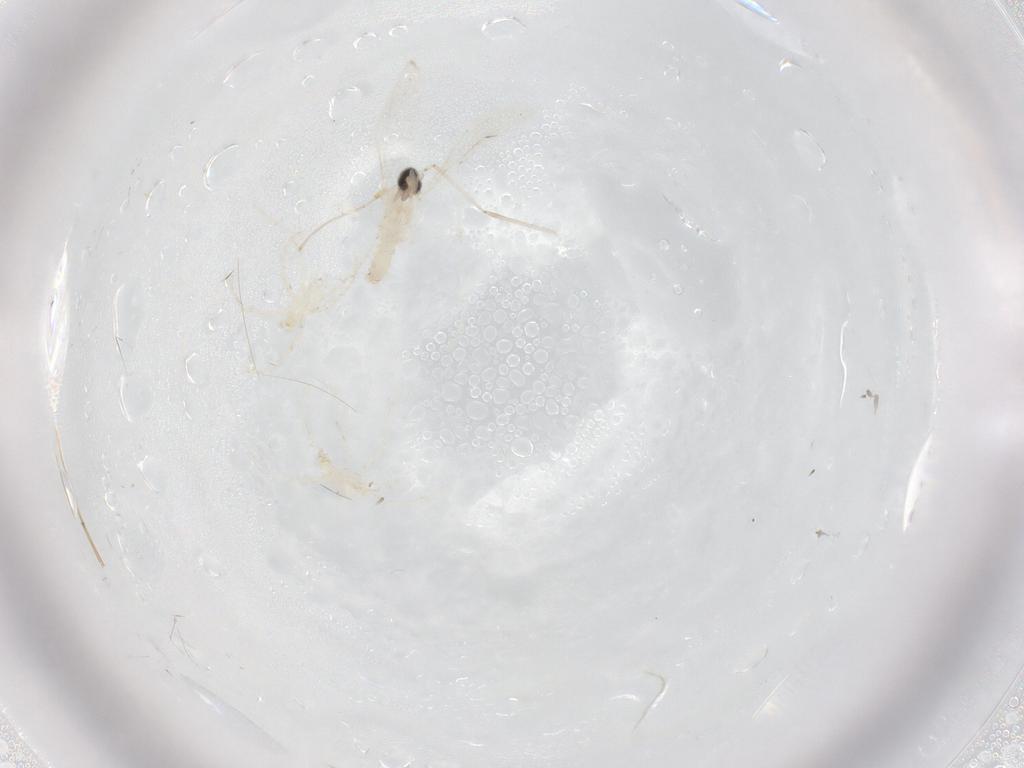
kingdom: Animalia
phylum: Arthropoda
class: Insecta
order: Diptera
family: Cecidomyiidae
